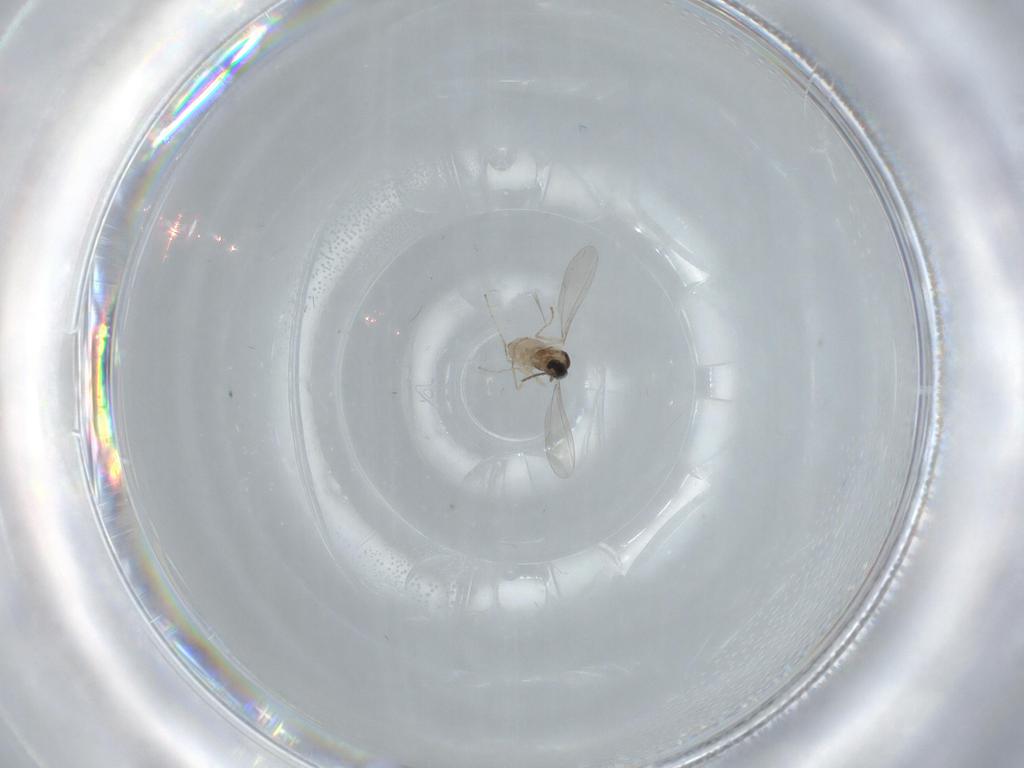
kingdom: Animalia
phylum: Arthropoda
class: Insecta
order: Diptera
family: Cecidomyiidae
